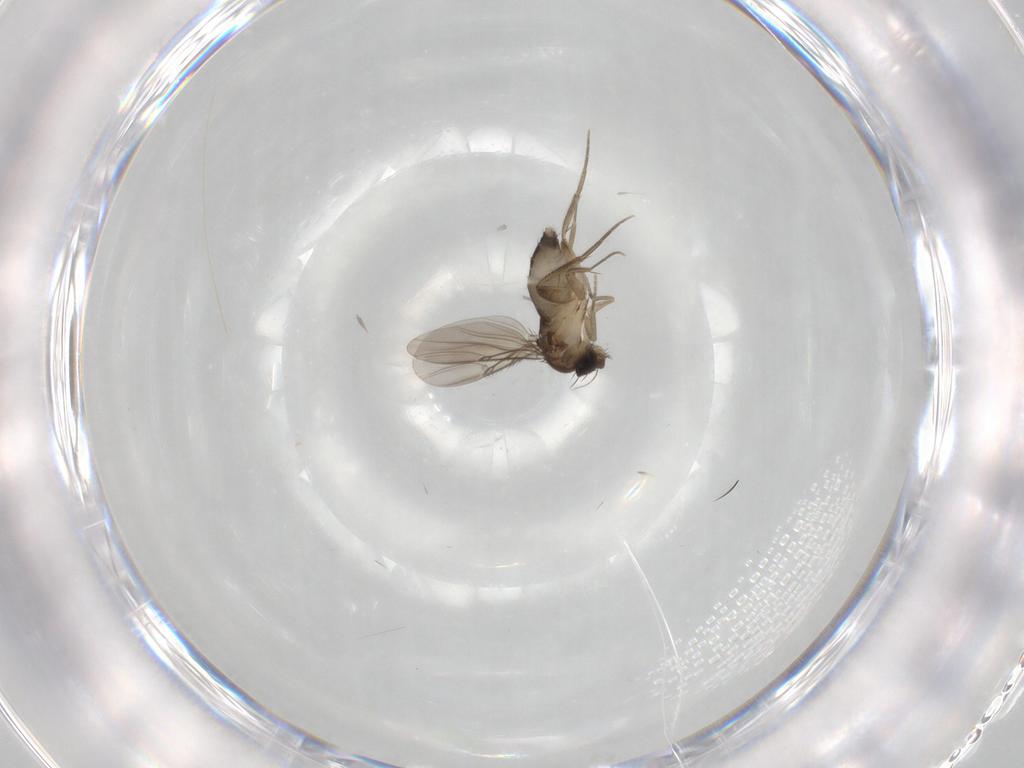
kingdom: Animalia
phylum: Arthropoda
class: Insecta
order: Diptera
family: Phoridae
